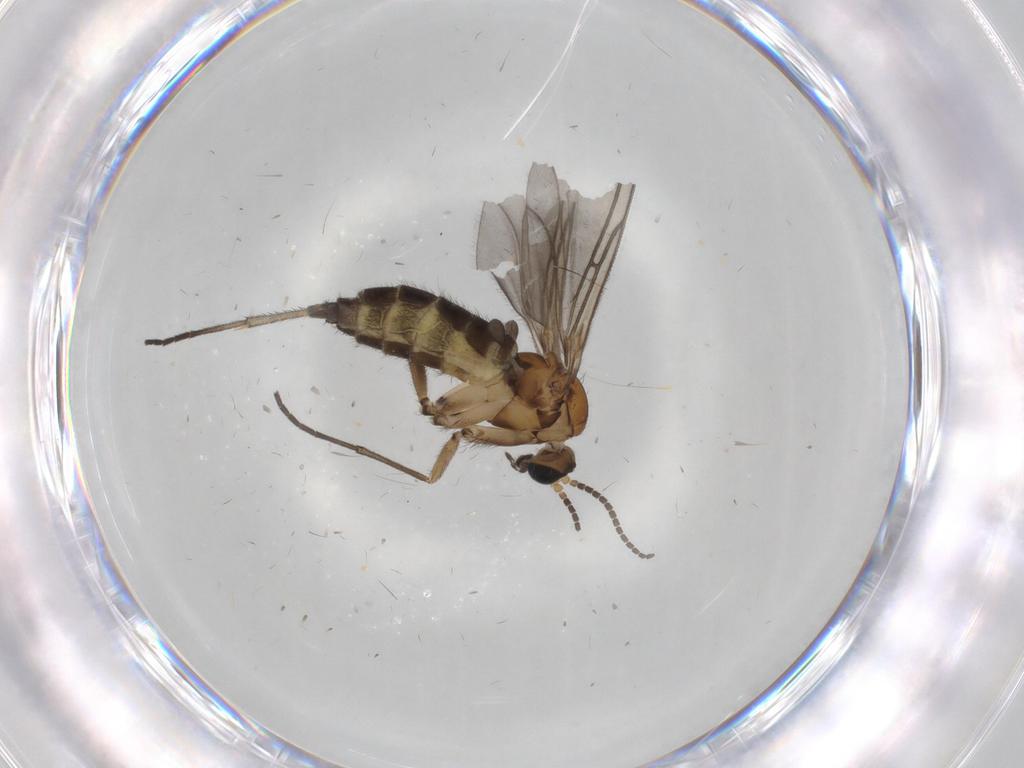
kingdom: Animalia
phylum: Arthropoda
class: Insecta
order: Diptera
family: Sciaridae
